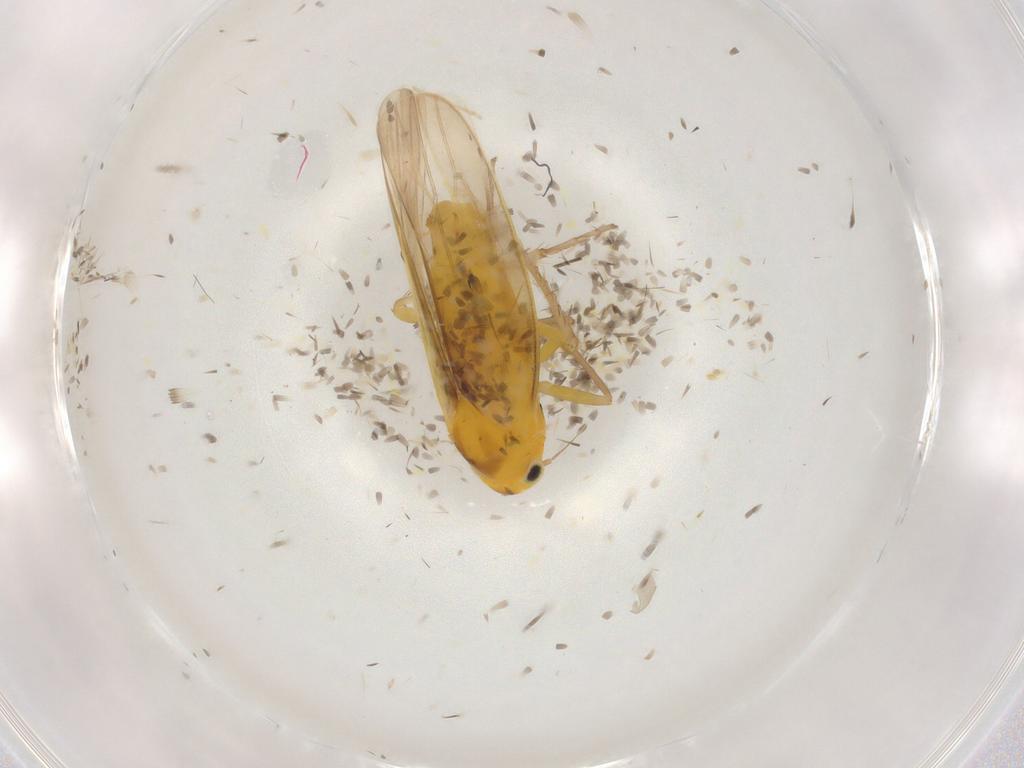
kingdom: Animalia
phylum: Arthropoda
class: Insecta
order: Hemiptera
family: Cicadellidae
